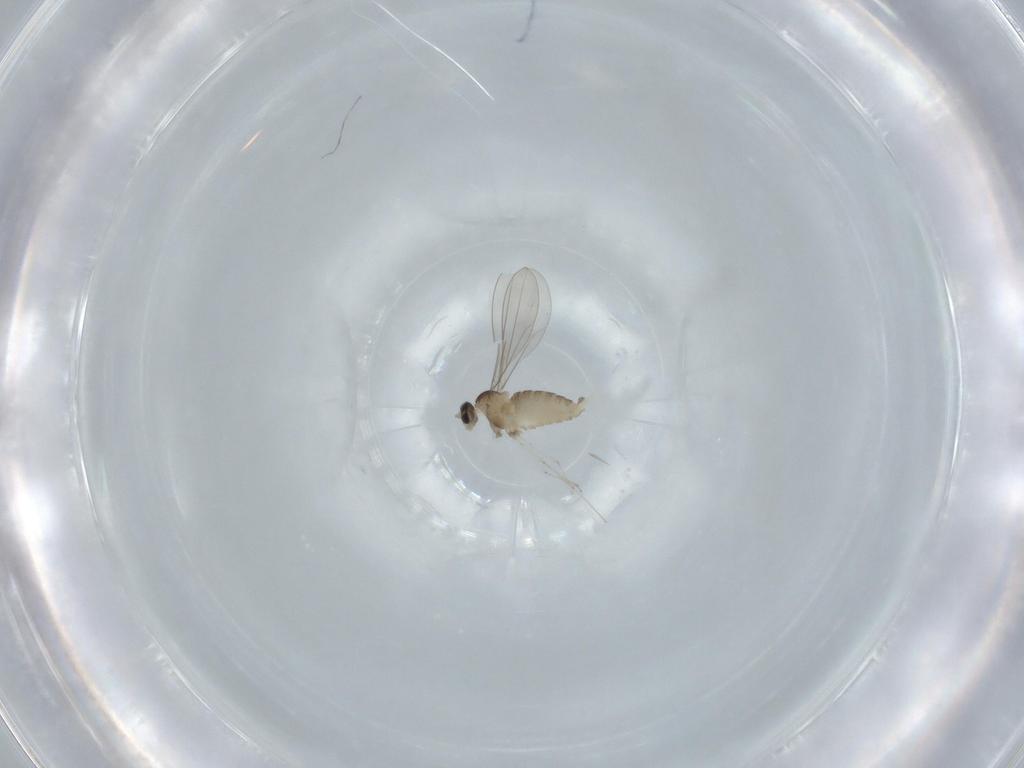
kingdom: Animalia
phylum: Arthropoda
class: Insecta
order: Diptera
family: Cecidomyiidae
